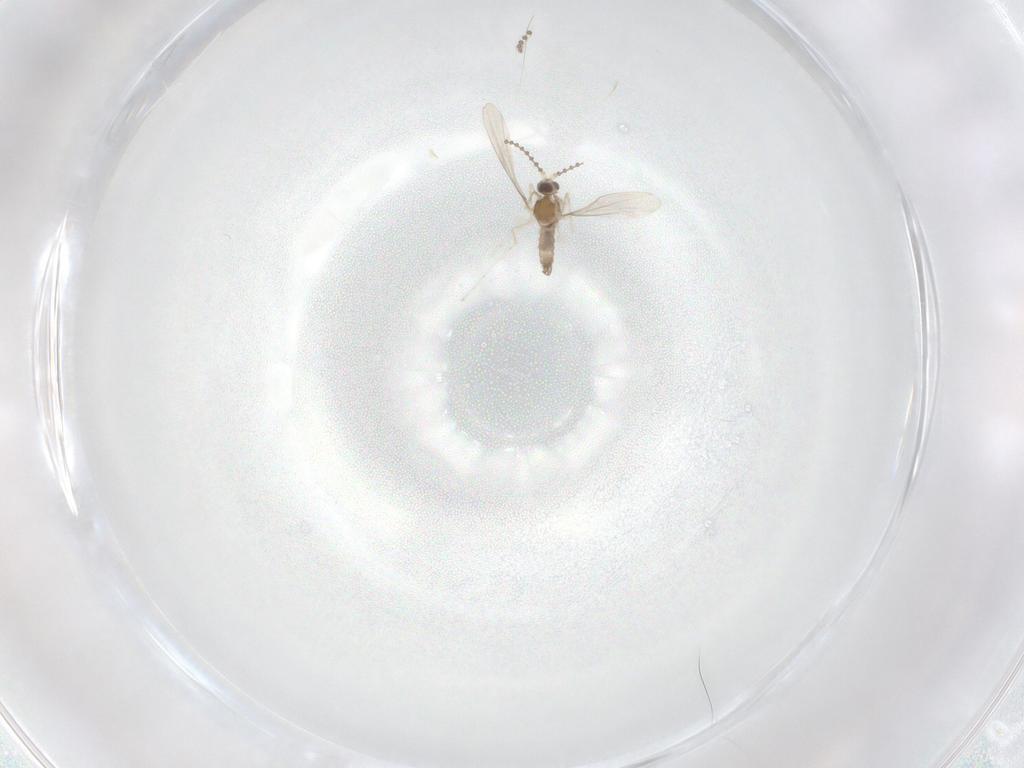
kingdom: Animalia
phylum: Arthropoda
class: Insecta
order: Diptera
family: Cecidomyiidae
